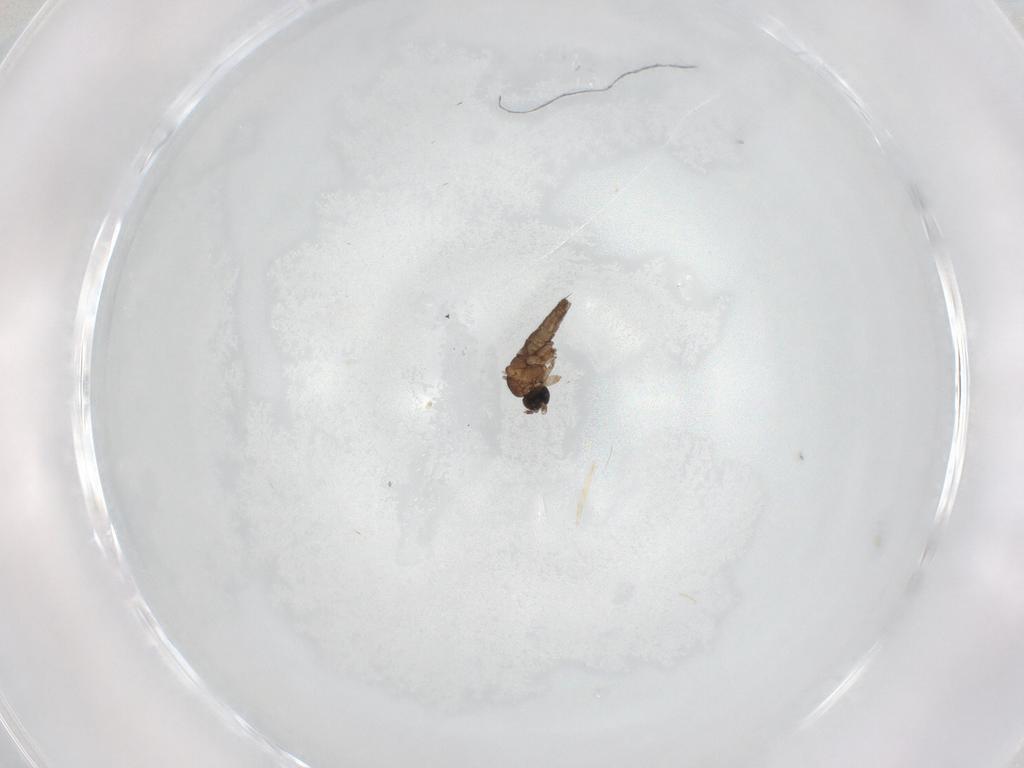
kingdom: Animalia
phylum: Arthropoda
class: Insecta
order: Diptera
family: Sciaridae
